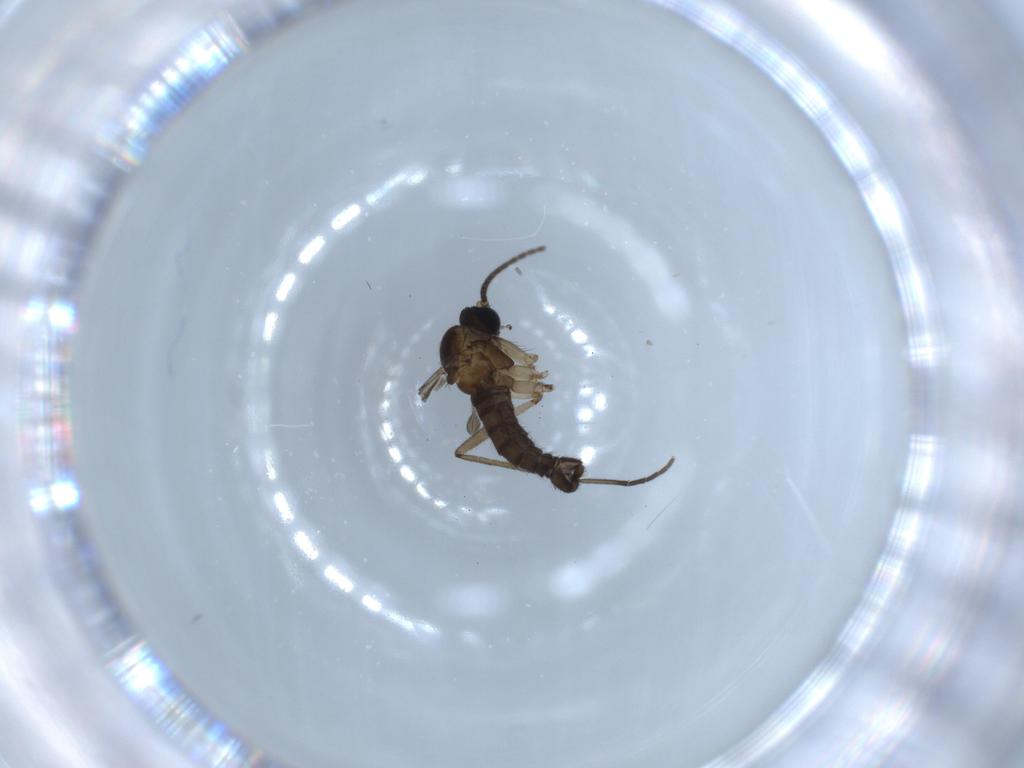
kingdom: Animalia
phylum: Arthropoda
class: Insecta
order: Diptera
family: Sciaridae
